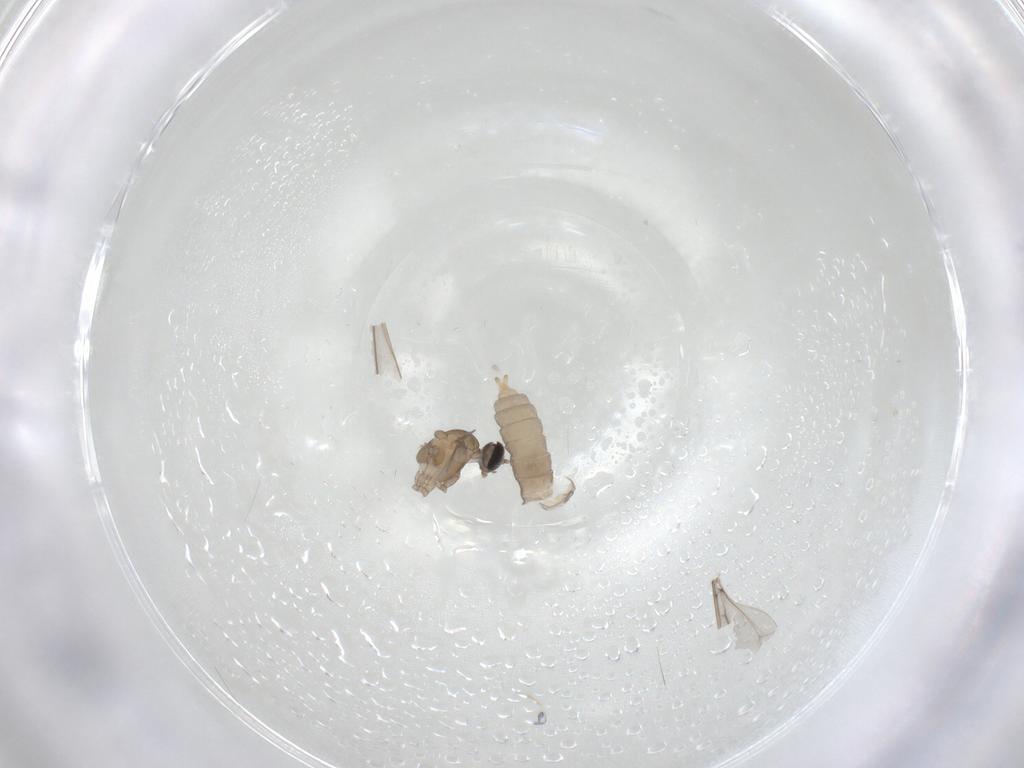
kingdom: Animalia
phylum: Arthropoda
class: Insecta
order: Diptera
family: Cecidomyiidae
